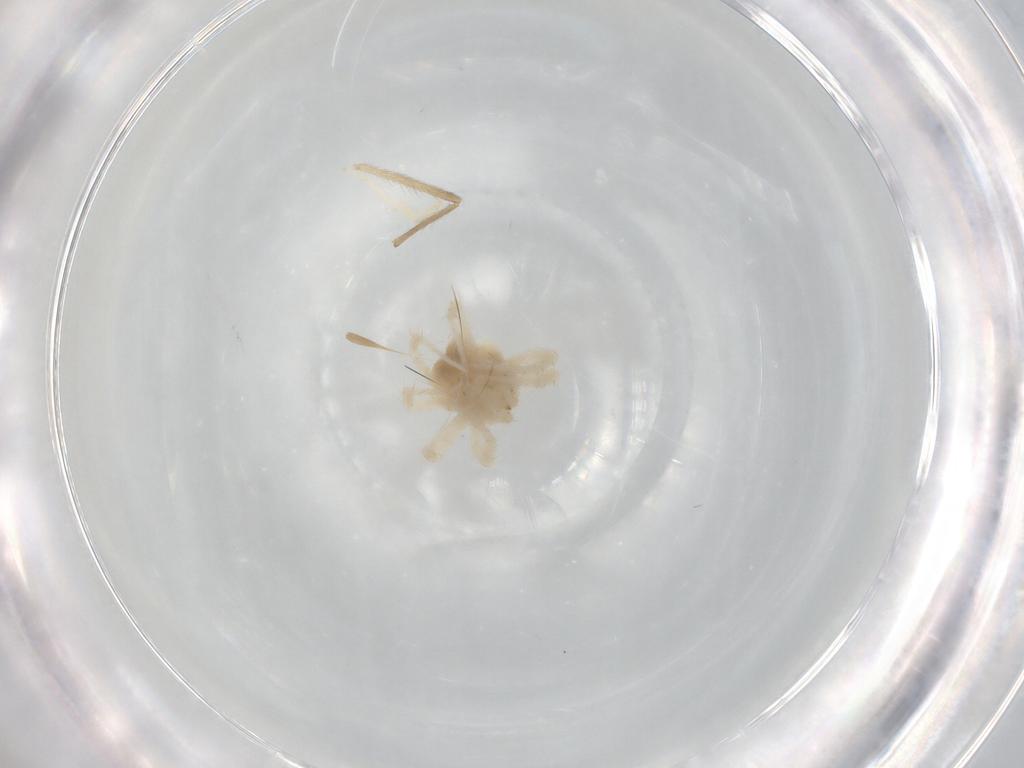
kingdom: Animalia
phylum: Arthropoda
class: Arachnida
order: Trombidiformes
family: Anystidae
